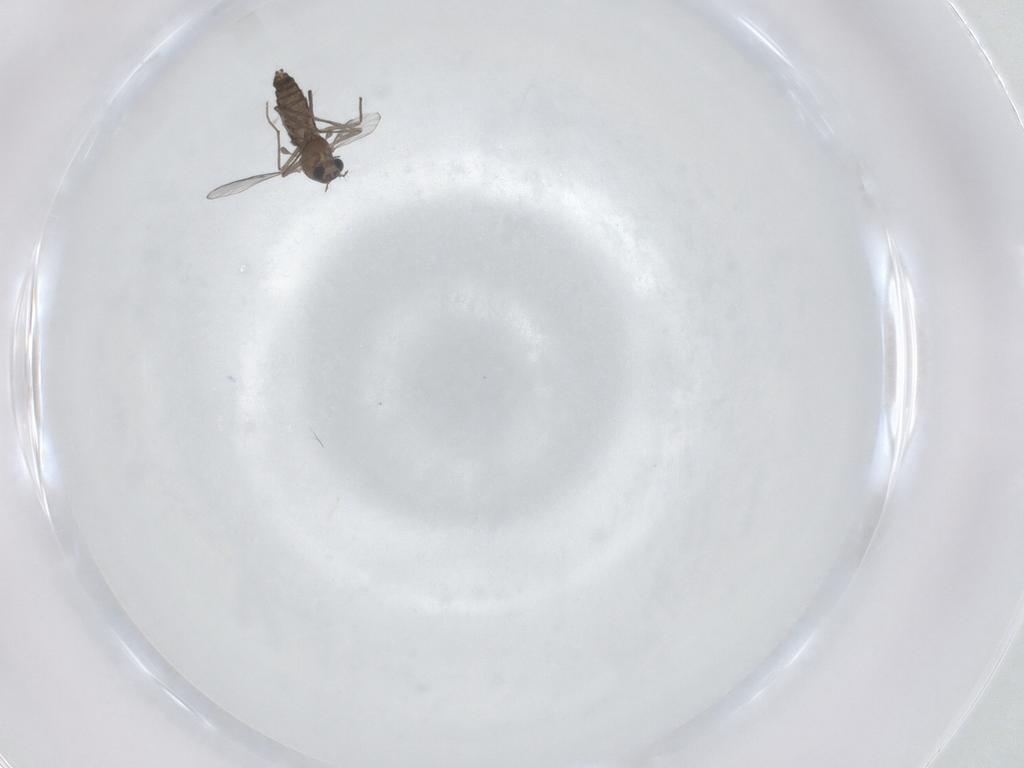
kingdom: Animalia
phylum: Arthropoda
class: Insecta
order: Diptera
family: Chironomidae
